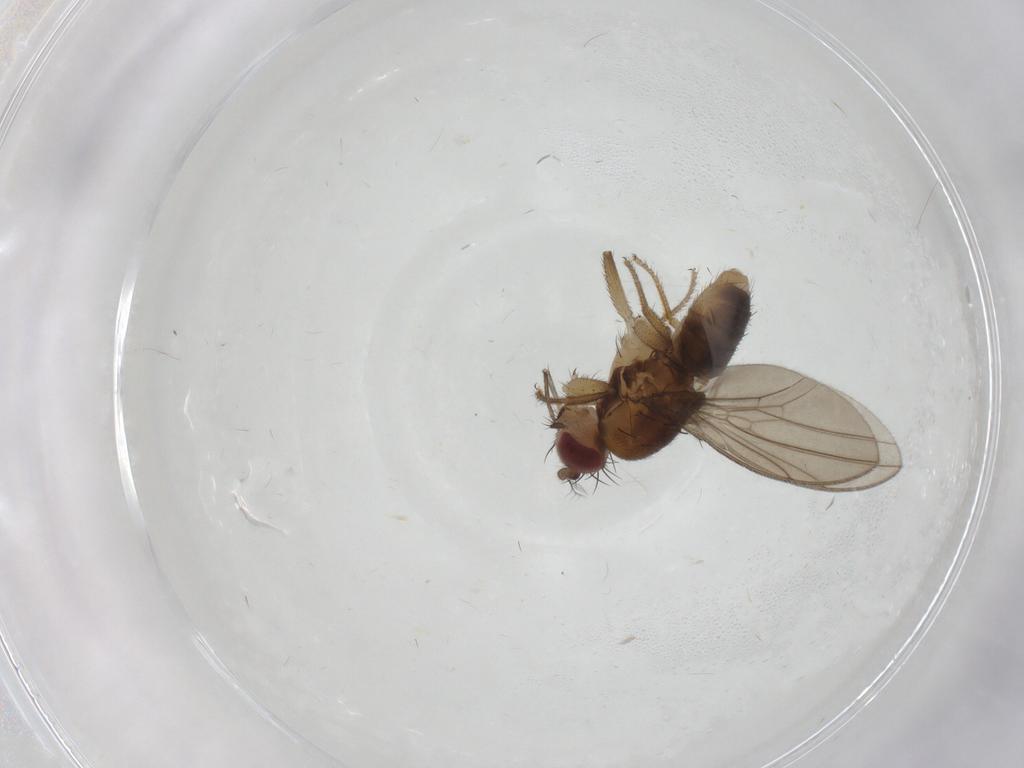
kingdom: Animalia
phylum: Arthropoda
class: Insecta
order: Diptera
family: Drosophilidae
